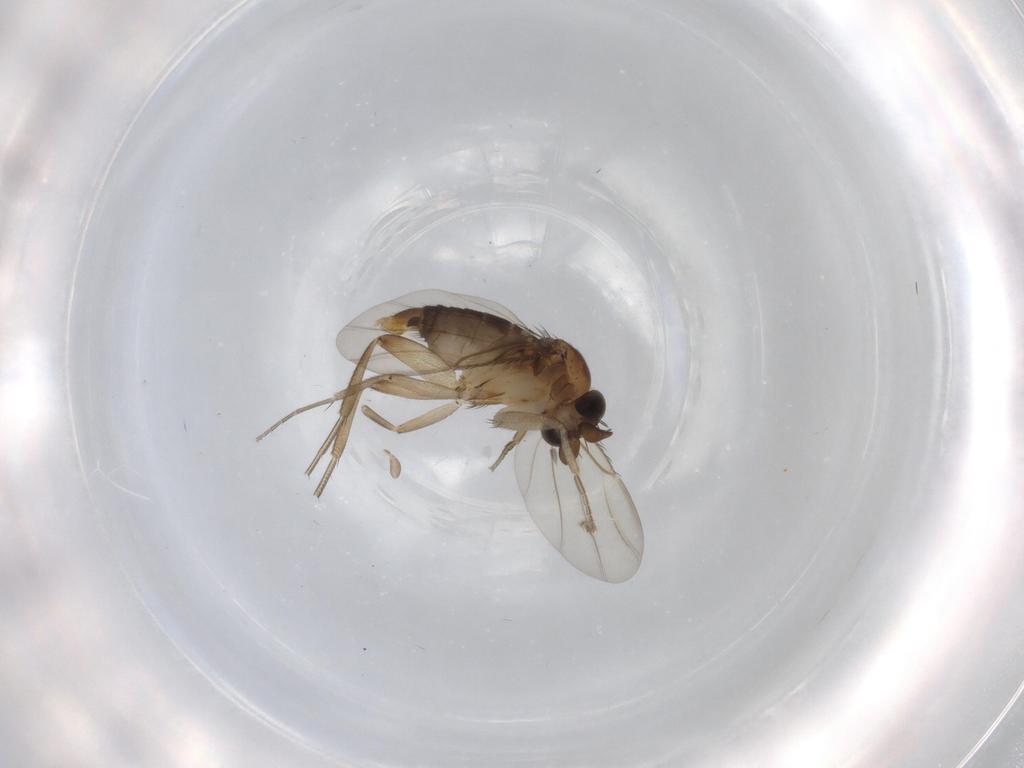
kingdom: Animalia
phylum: Arthropoda
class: Insecta
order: Diptera
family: Phoridae
